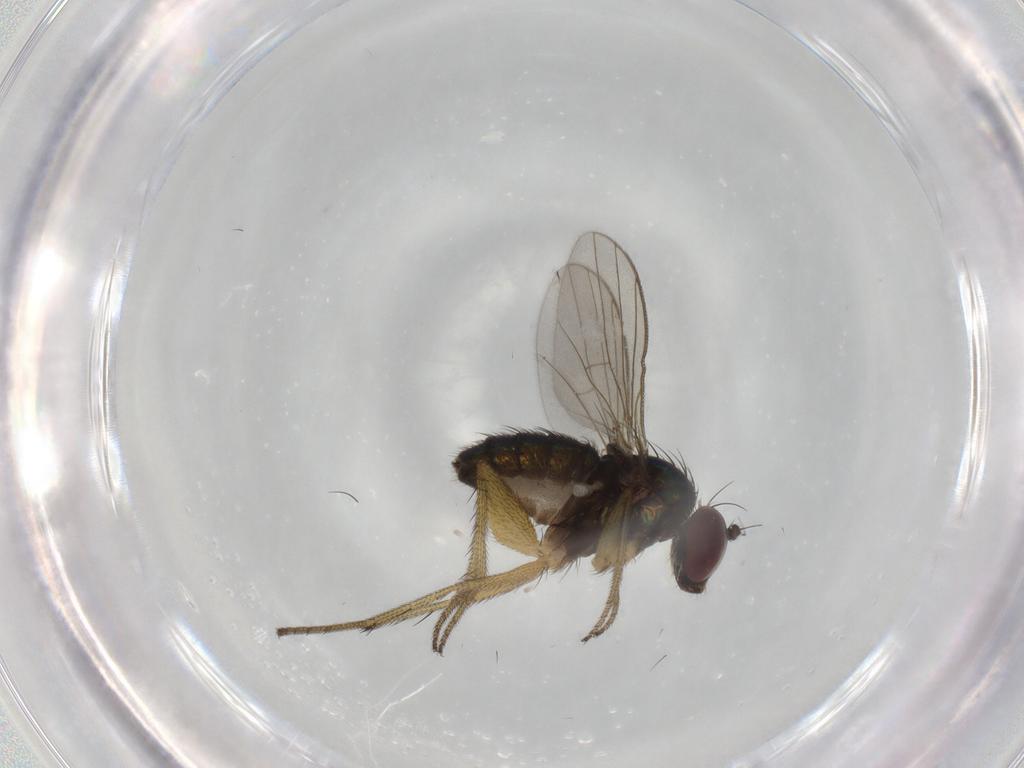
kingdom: Animalia
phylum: Arthropoda
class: Insecta
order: Diptera
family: Dolichopodidae
